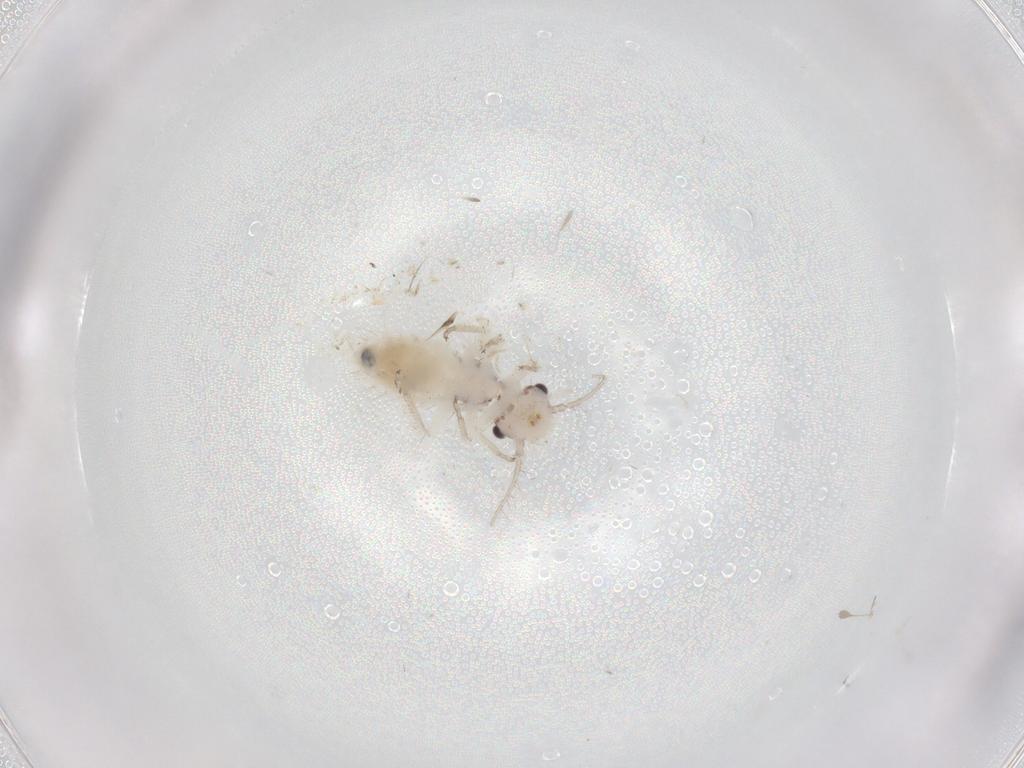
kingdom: Animalia
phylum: Arthropoda
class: Insecta
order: Psocodea
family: Pseudocaeciliidae
